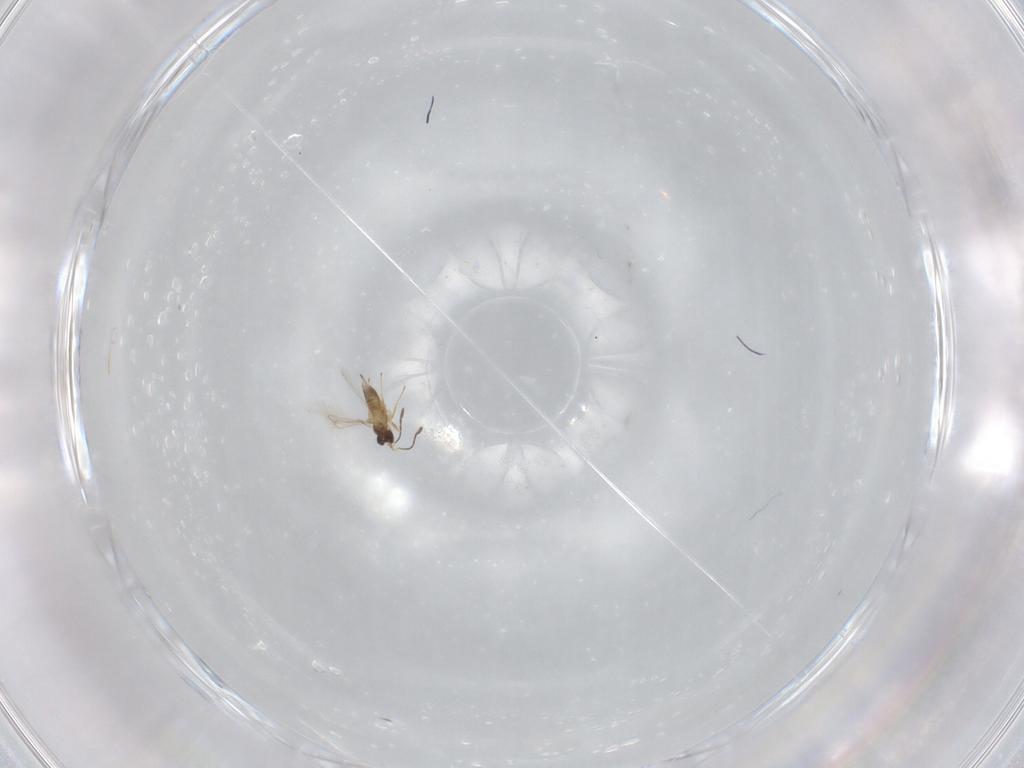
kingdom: Animalia
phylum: Arthropoda
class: Insecta
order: Hymenoptera
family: Mymaridae
